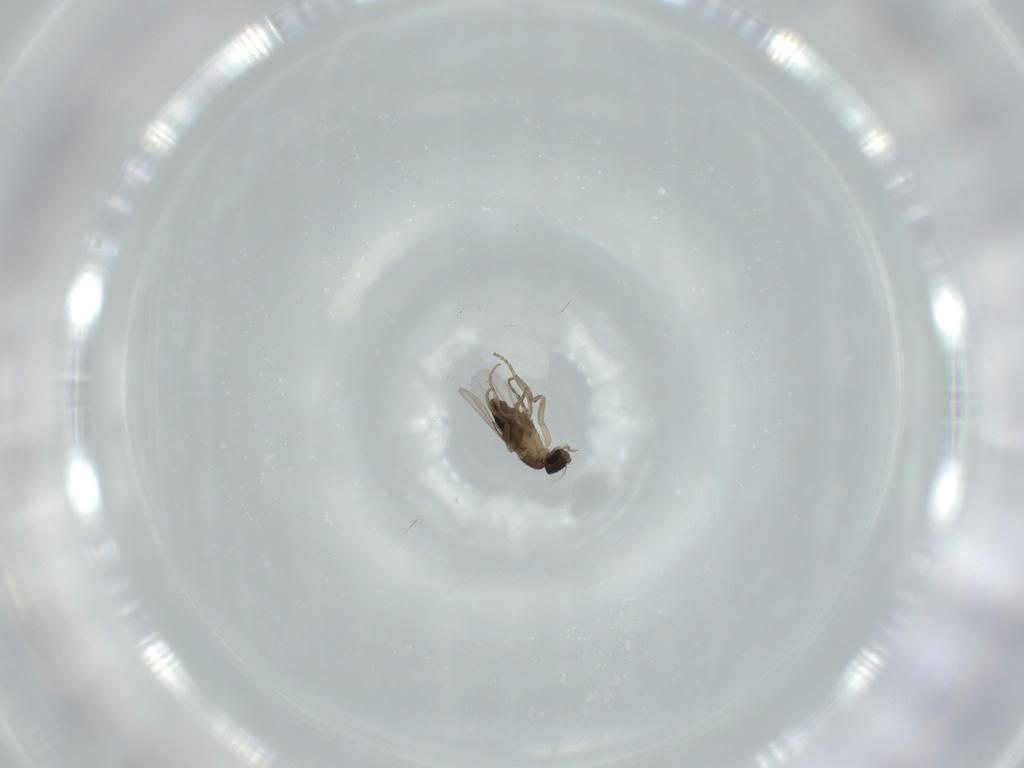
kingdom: Animalia
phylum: Arthropoda
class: Insecta
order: Diptera
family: Phoridae
